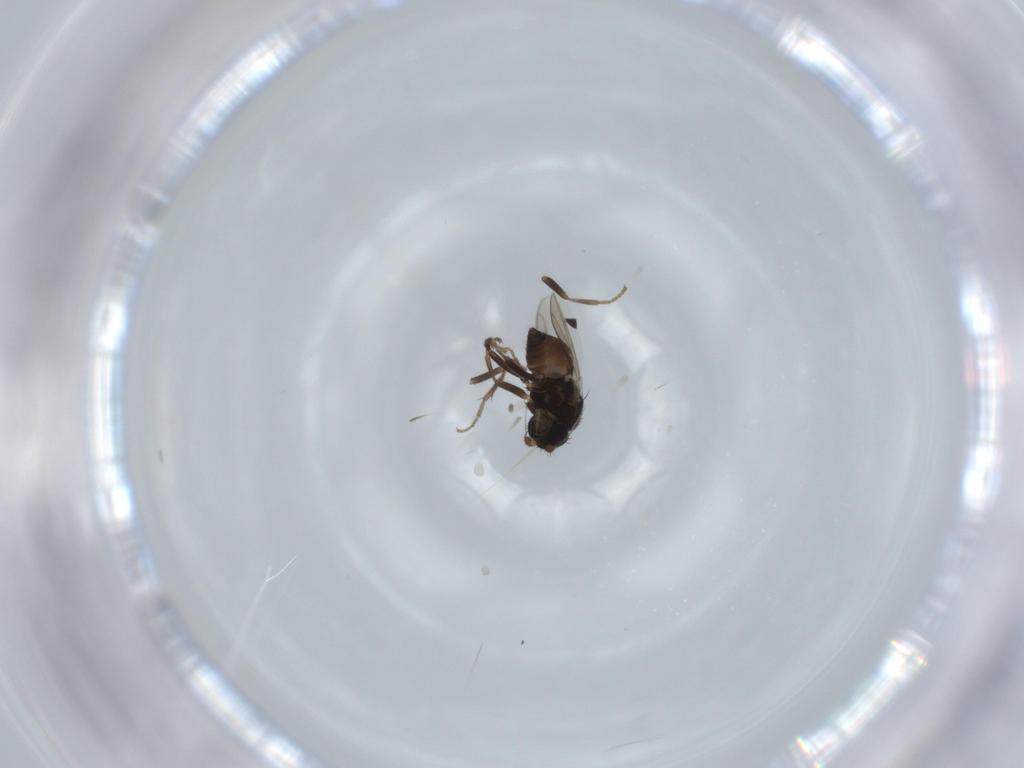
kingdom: Animalia
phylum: Arthropoda
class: Insecta
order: Diptera
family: Sphaeroceridae
